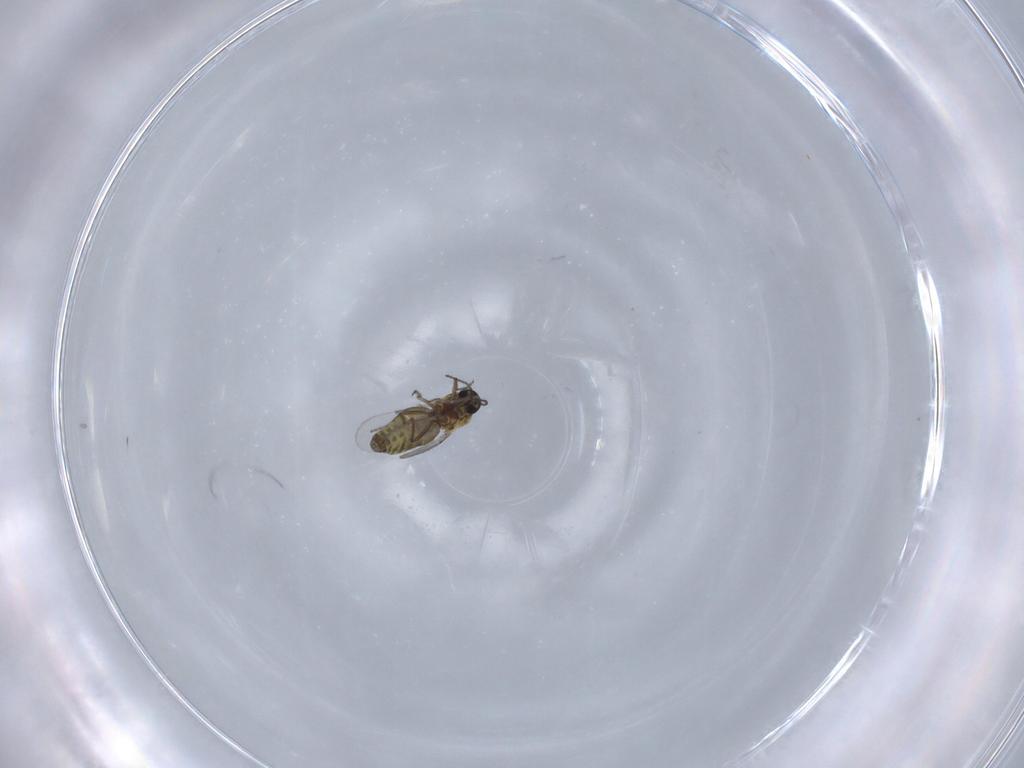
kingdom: Animalia
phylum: Arthropoda
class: Insecta
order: Diptera
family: Ceratopogonidae
